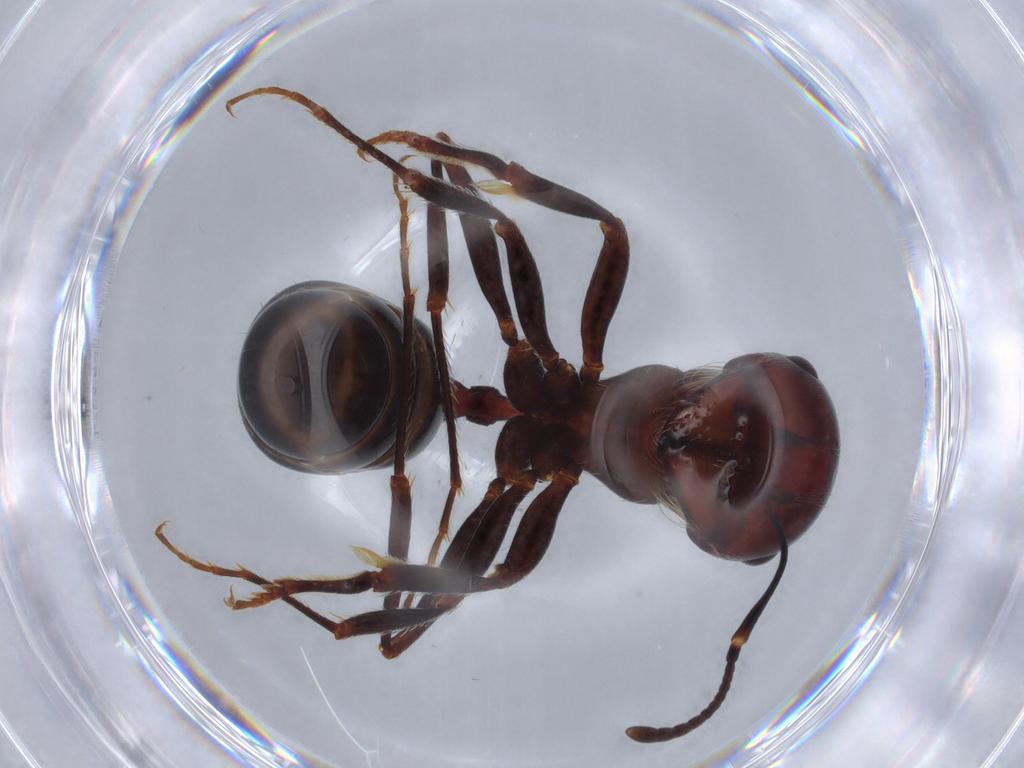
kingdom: Animalia
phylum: Arthropoda
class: Insecta
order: Hymenoptera
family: Formicidae
